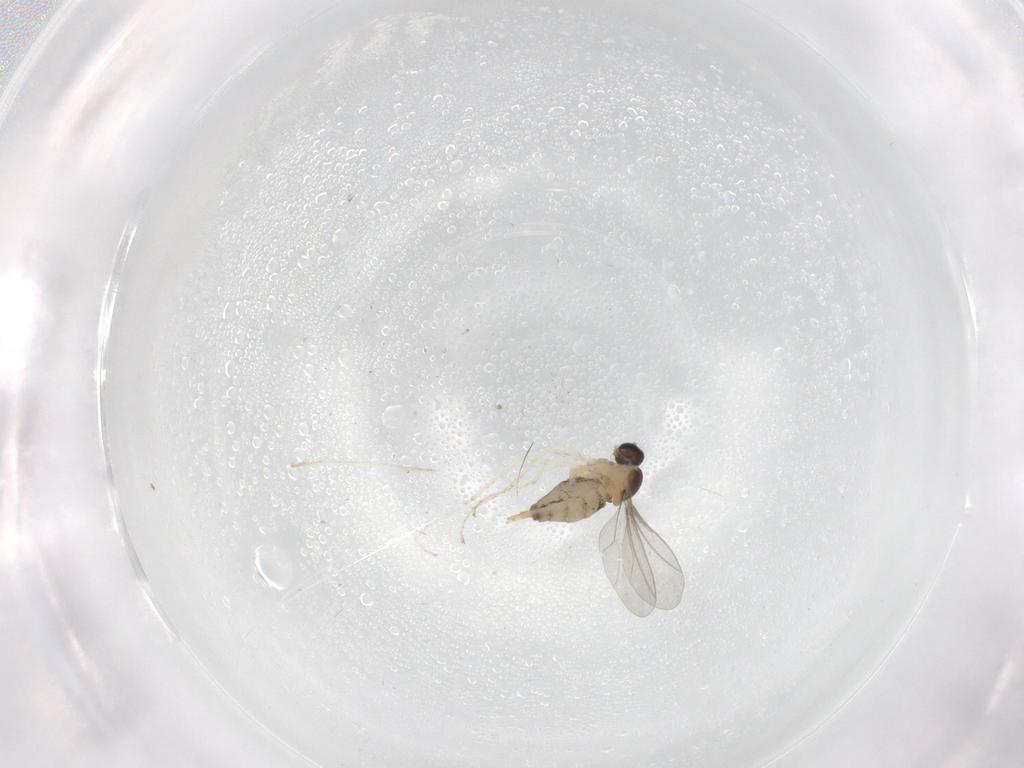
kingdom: Animalia
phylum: Arthropoda
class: Insecta
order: Diptera
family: Cecidomyiidae
